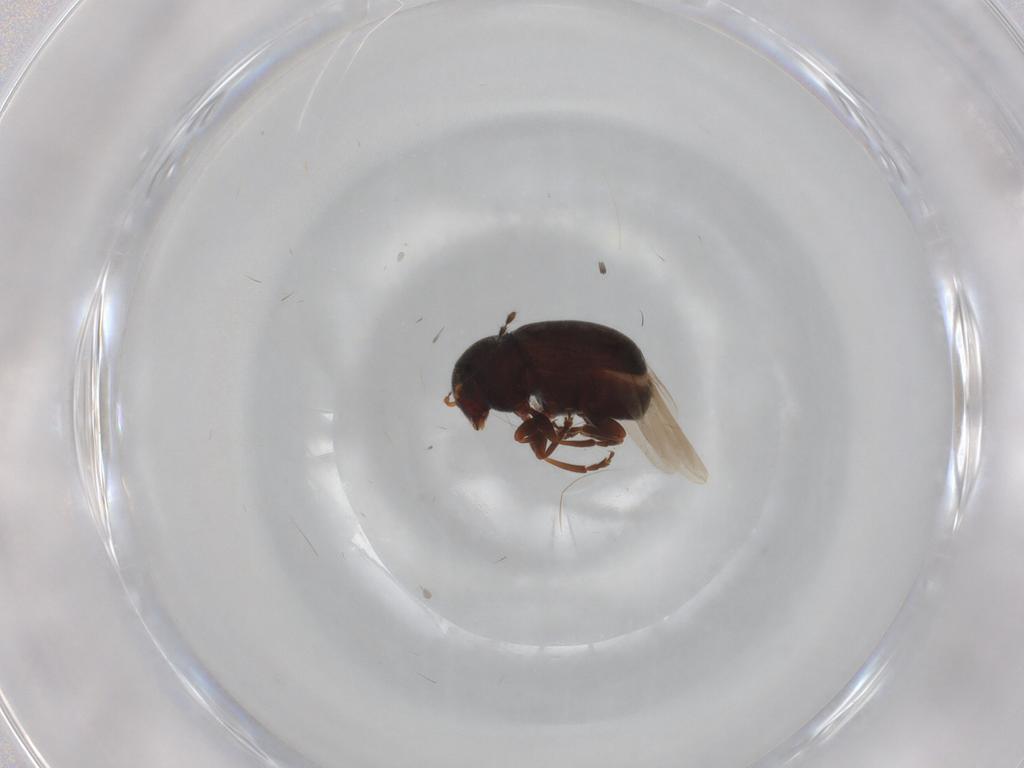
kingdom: Animalia
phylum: Arthropoda
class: Insecta
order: Coleoptera
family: Anthribidae
